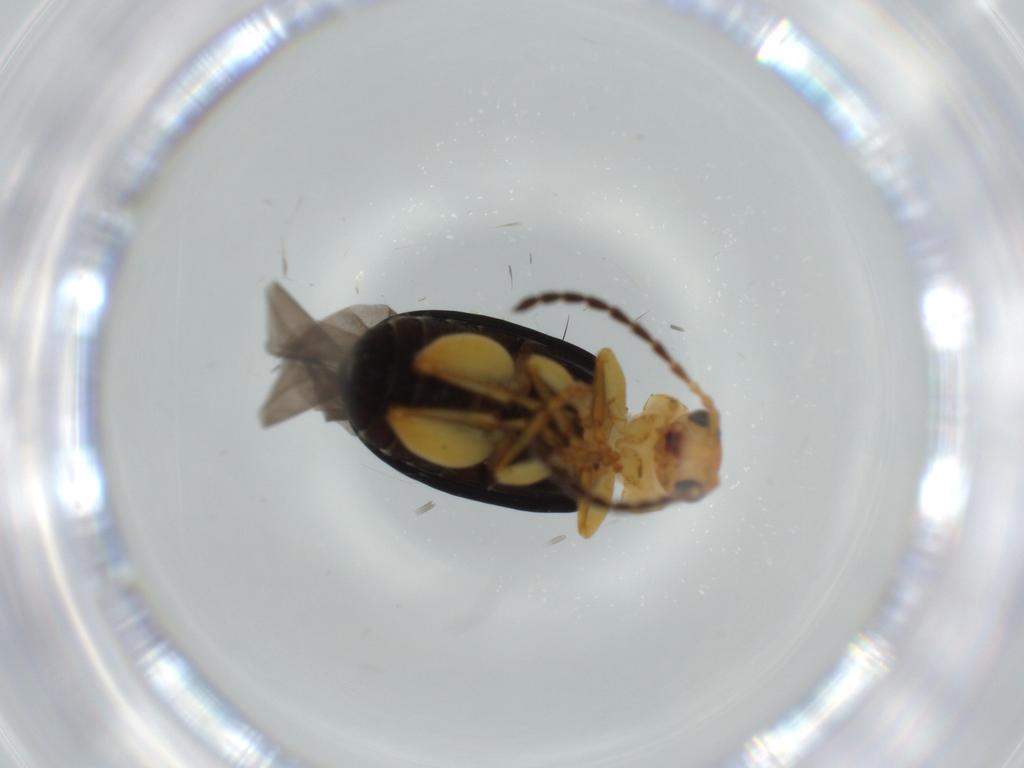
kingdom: Animalia
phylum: Arthropoda
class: Insecta
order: Coleoptera
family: Chrysomelidae
